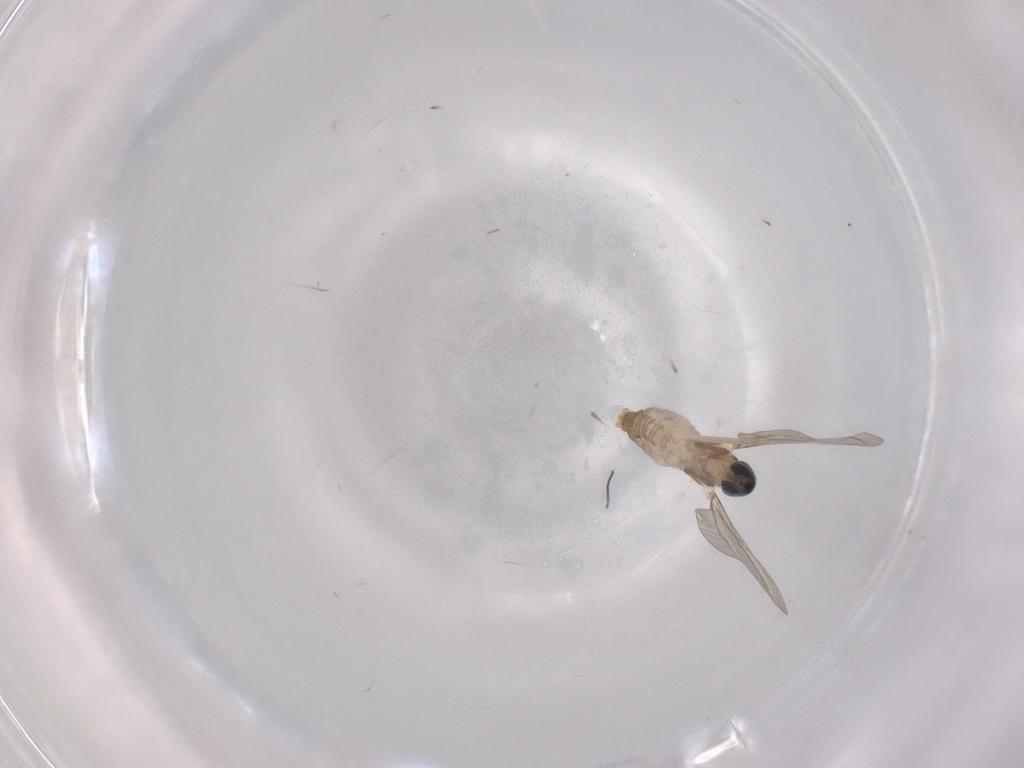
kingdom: Animalia
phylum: Arthropoda
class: Insecta
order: Diptera
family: Cecidomyiidae
